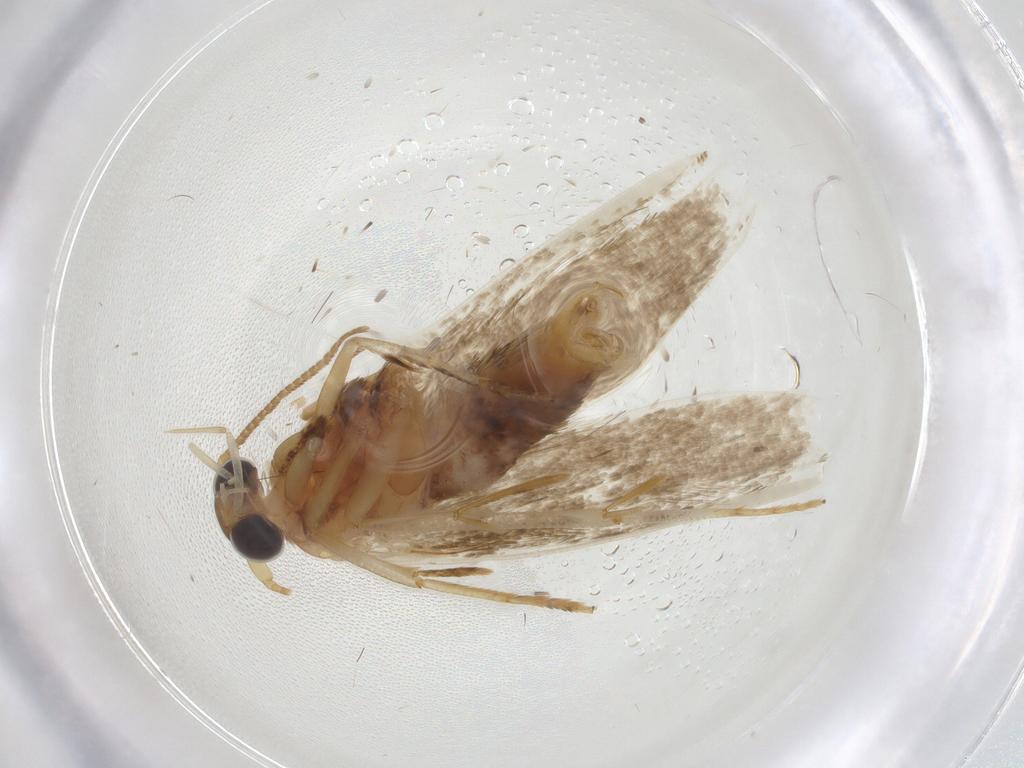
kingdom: Animalia
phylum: Arthropoda
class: Insecta
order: Lepidoptera
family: Blastobasidae
